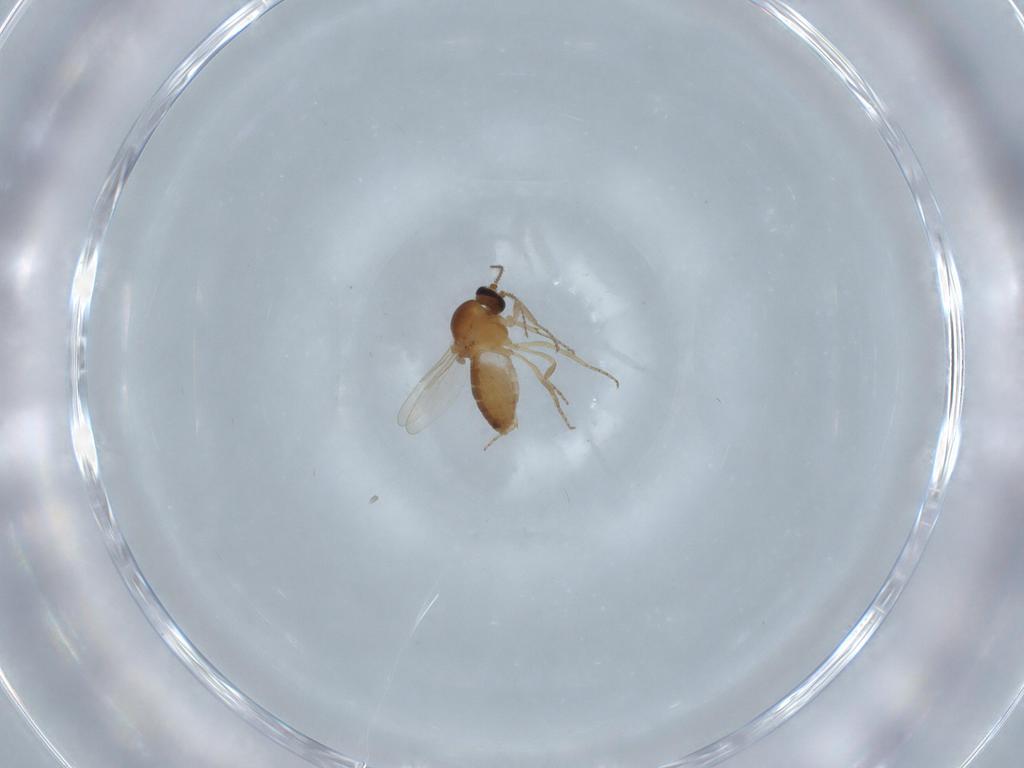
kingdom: Animalia
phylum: Arthropoda
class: Insecta
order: Diptera
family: Ceratopogonidae
